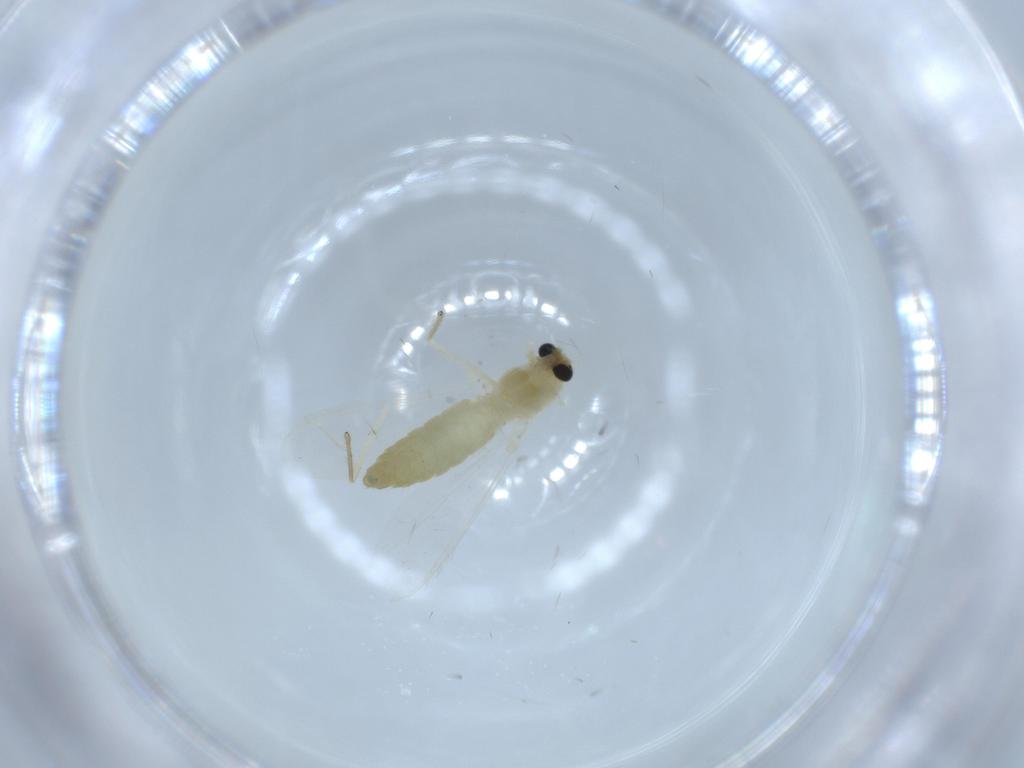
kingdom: Animalia
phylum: Arthropoda
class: Insecta
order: Diptera
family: Chironomidae
